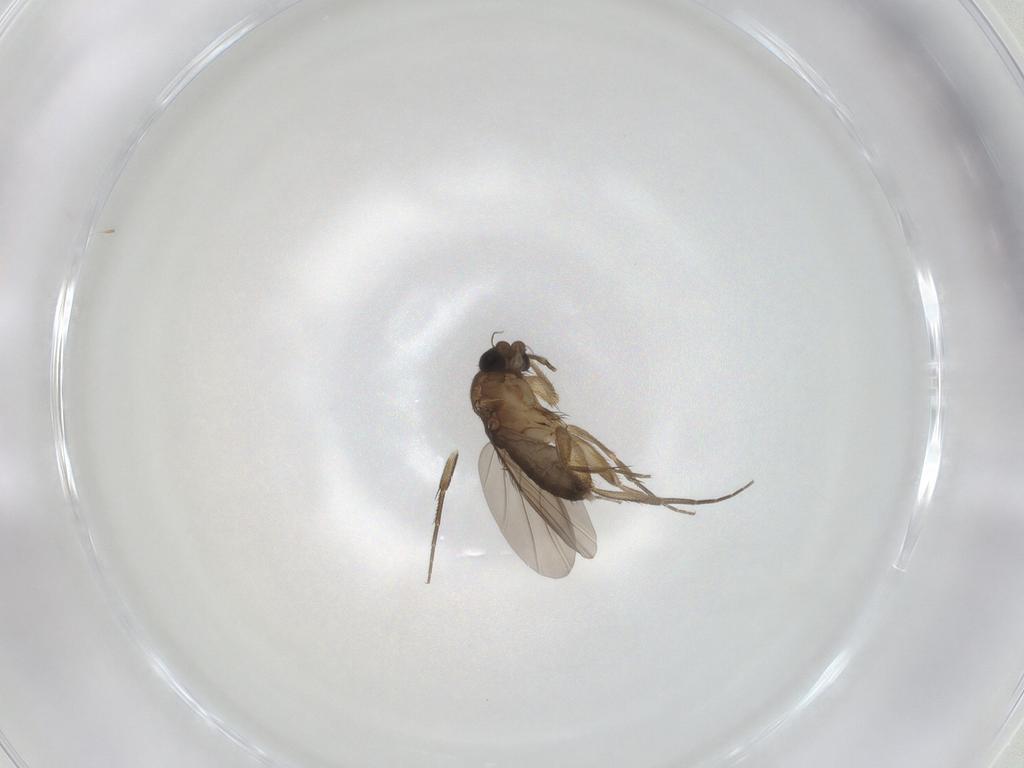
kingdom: Animalia
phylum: Arthropoda
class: Insecta
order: Diptera
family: Phoridae
